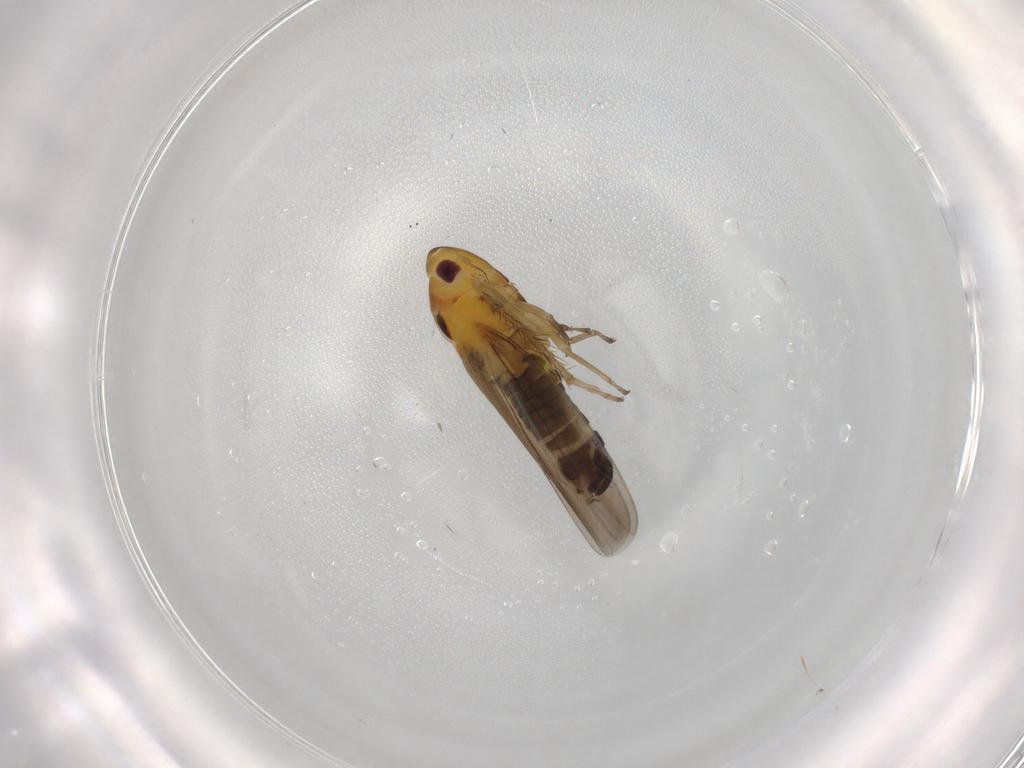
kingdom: Animalia
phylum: Arthropoda
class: Insecta
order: Hemiptera
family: Cicadellidae
